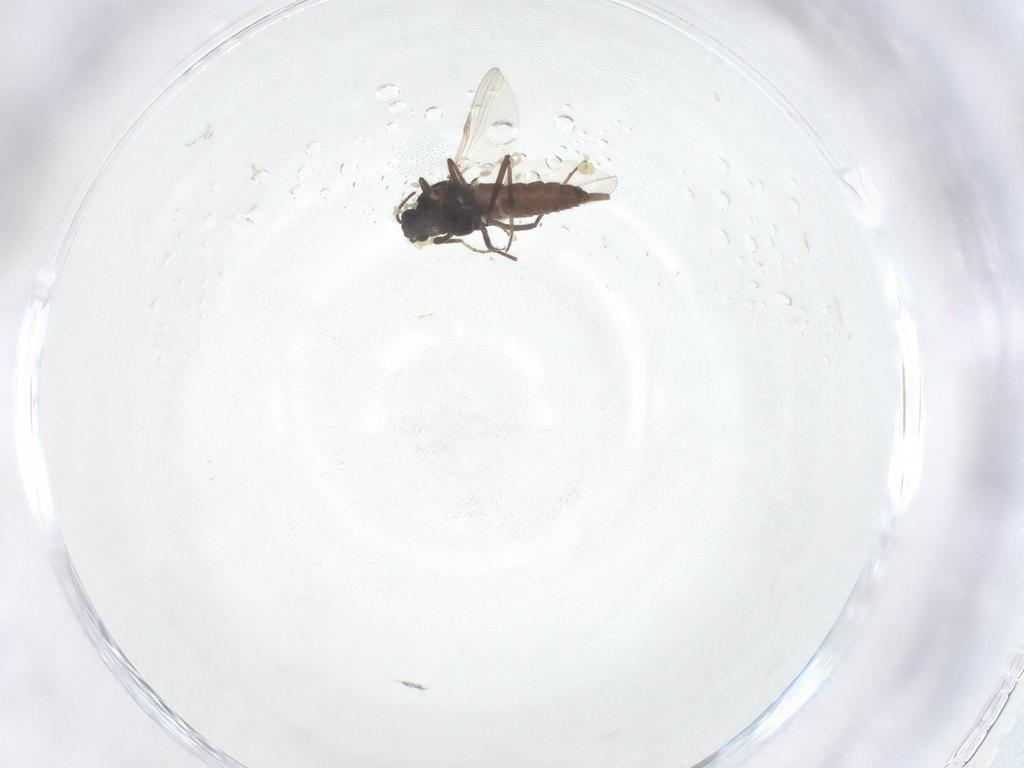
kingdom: Animalia
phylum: Arthropoda
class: Insecta
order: Diptera
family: Ceratopogonidae
